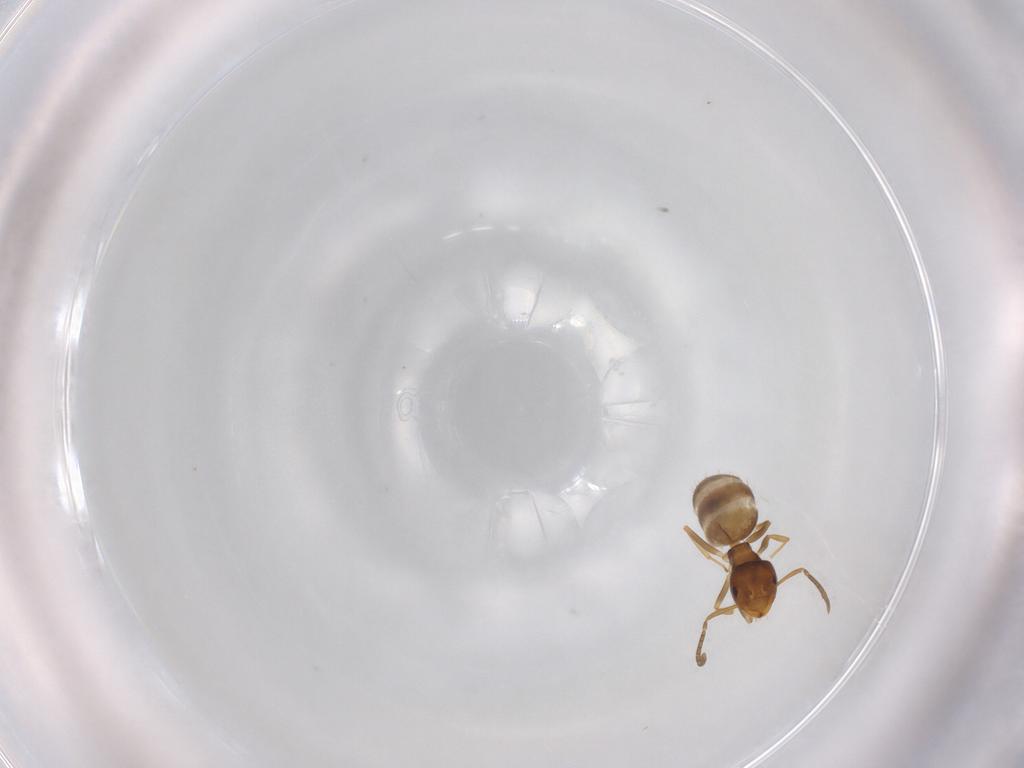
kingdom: Animalia
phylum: Arthropoda
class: Insecta
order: Hymenoptera
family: Formicidae
